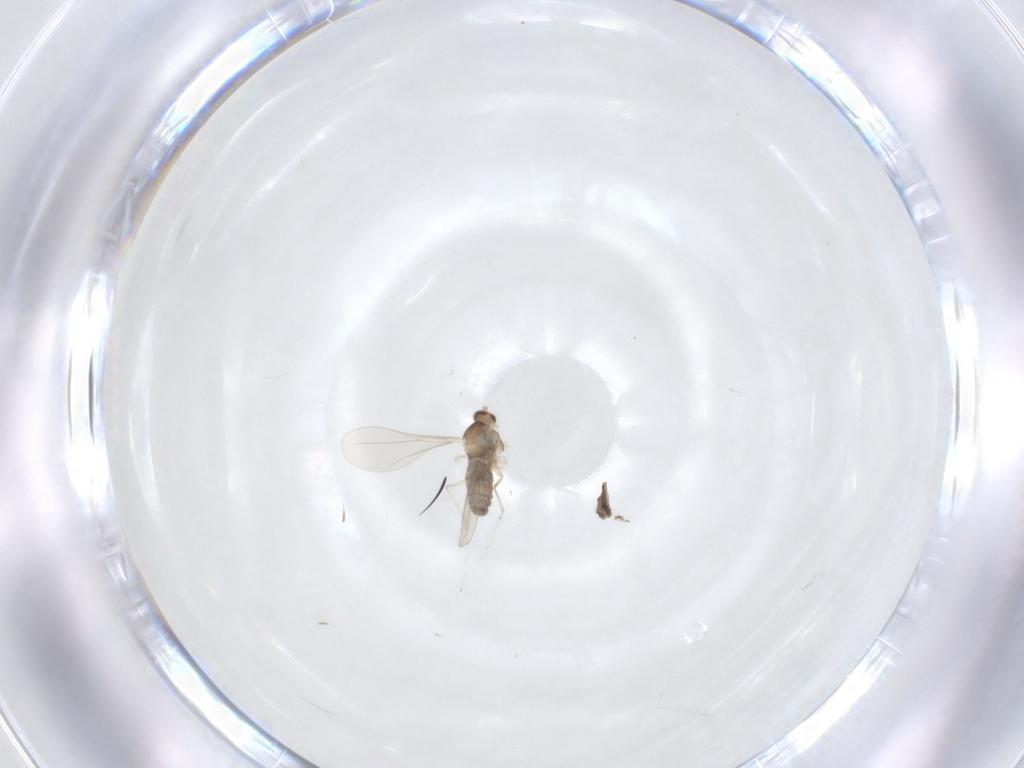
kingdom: Animalia
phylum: Arthropoda
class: Insecta
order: Diptera
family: Cecidomyiidae
